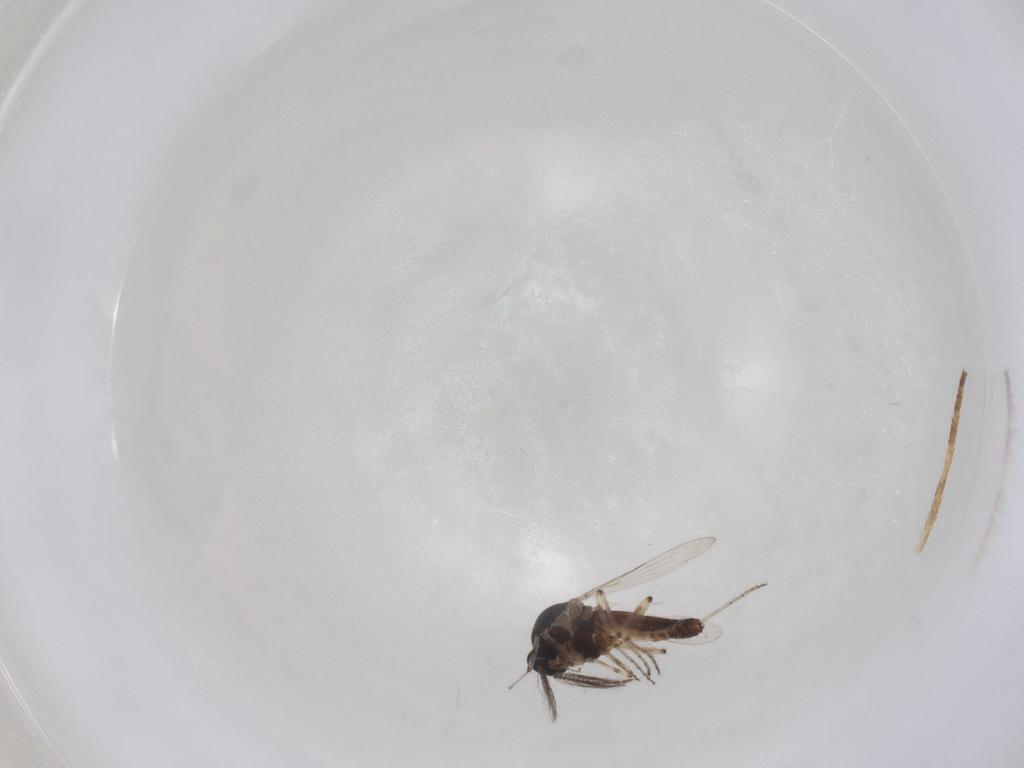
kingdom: Animalia
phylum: Arthropoda
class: Insecta
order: Diptera
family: Ceratopogonidae
